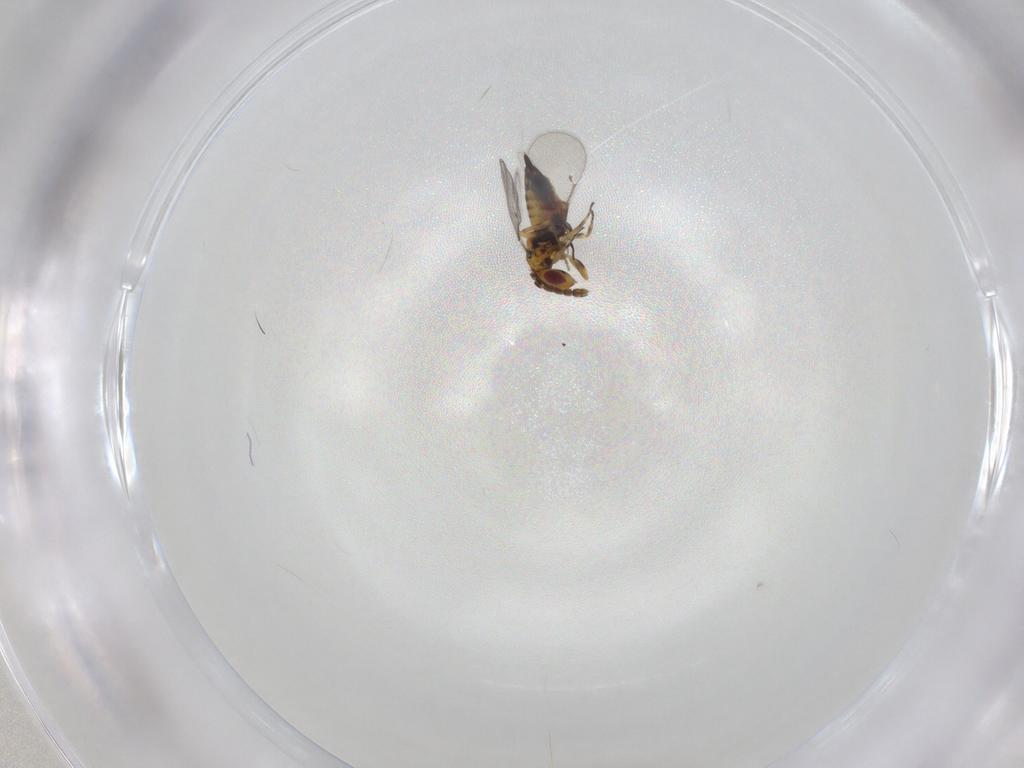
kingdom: Animalia
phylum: Arthropoda
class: Insecta
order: Hymenoptera
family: Eulophidae
